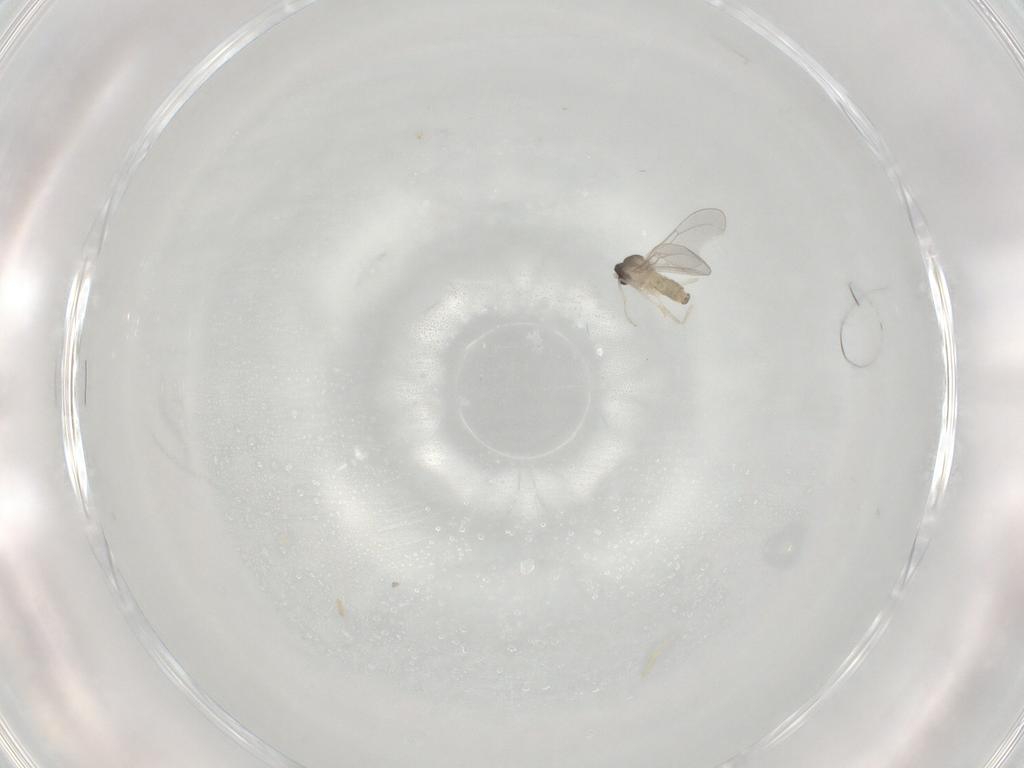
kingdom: Animalia
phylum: Arthropoda
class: Insecta
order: Diptera
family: Cecidomyiidae
